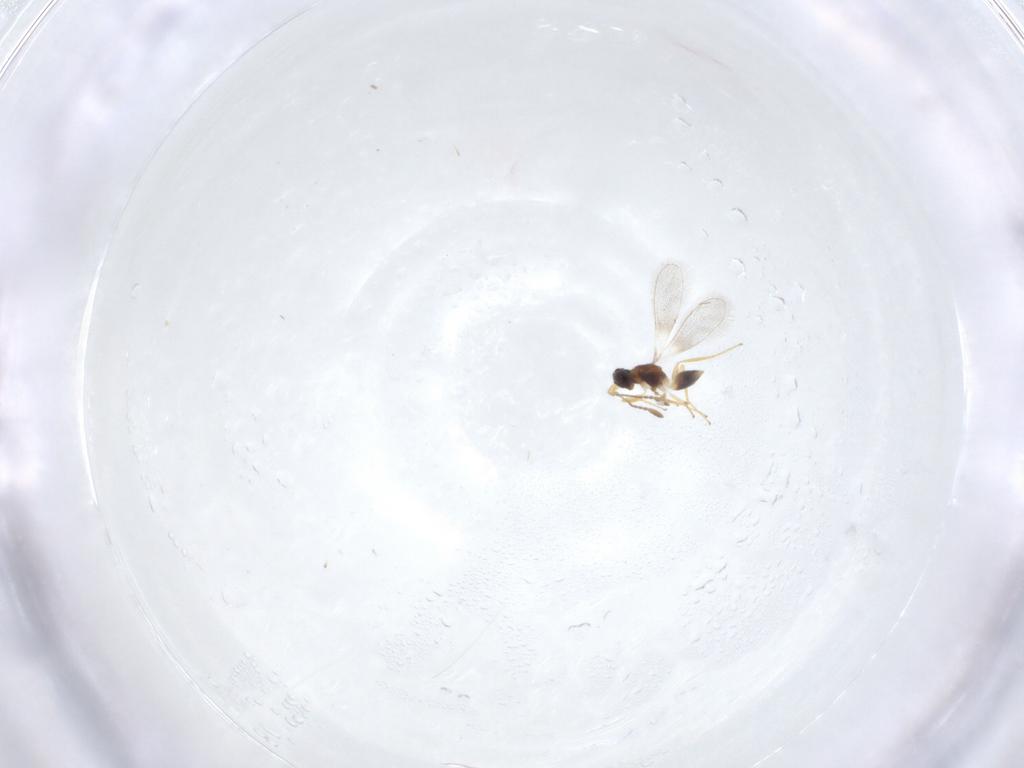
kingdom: Animalia
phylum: Arthropoda
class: Insecta
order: Hymenoptera
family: Mymaridae
